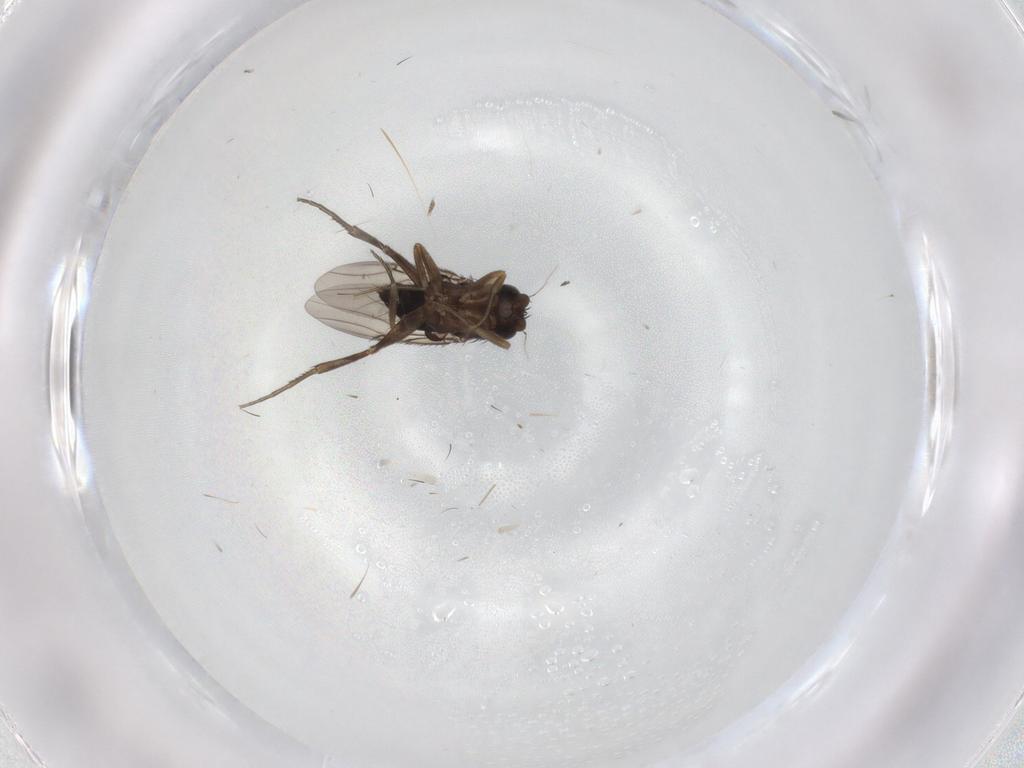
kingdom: Animalia
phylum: Arthropoda
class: Insecta
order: Diptera
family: Phoridae
